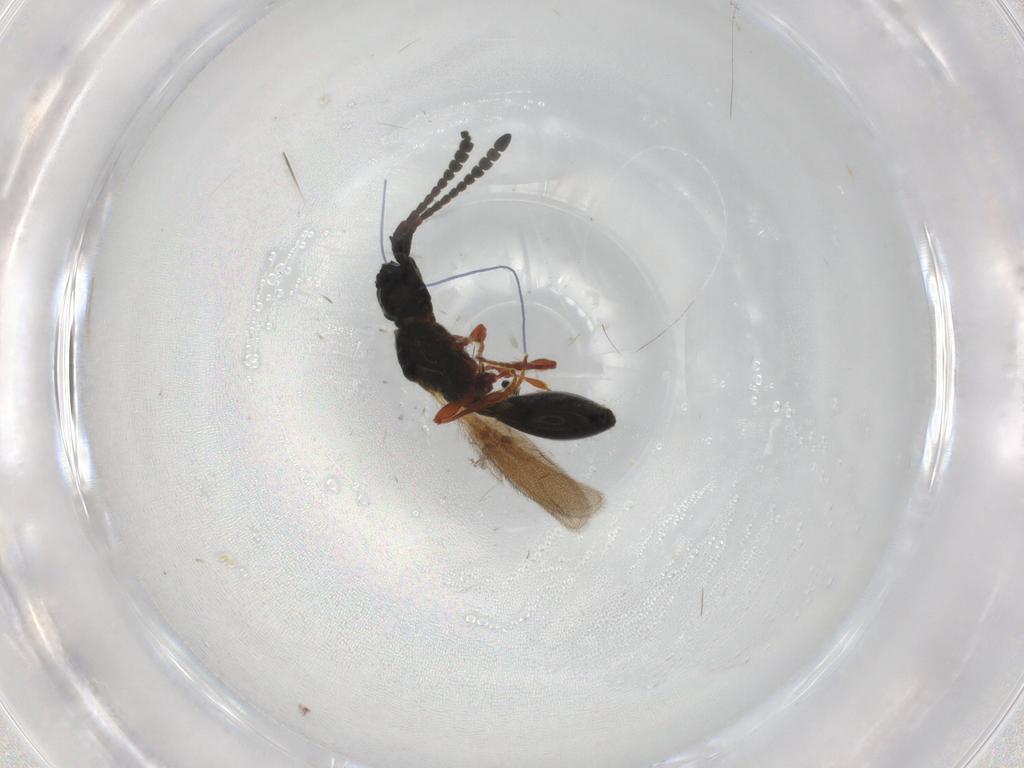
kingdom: Animalia
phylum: Arthropoda
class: Insecta
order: Hymenoptera
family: Diapriidae
